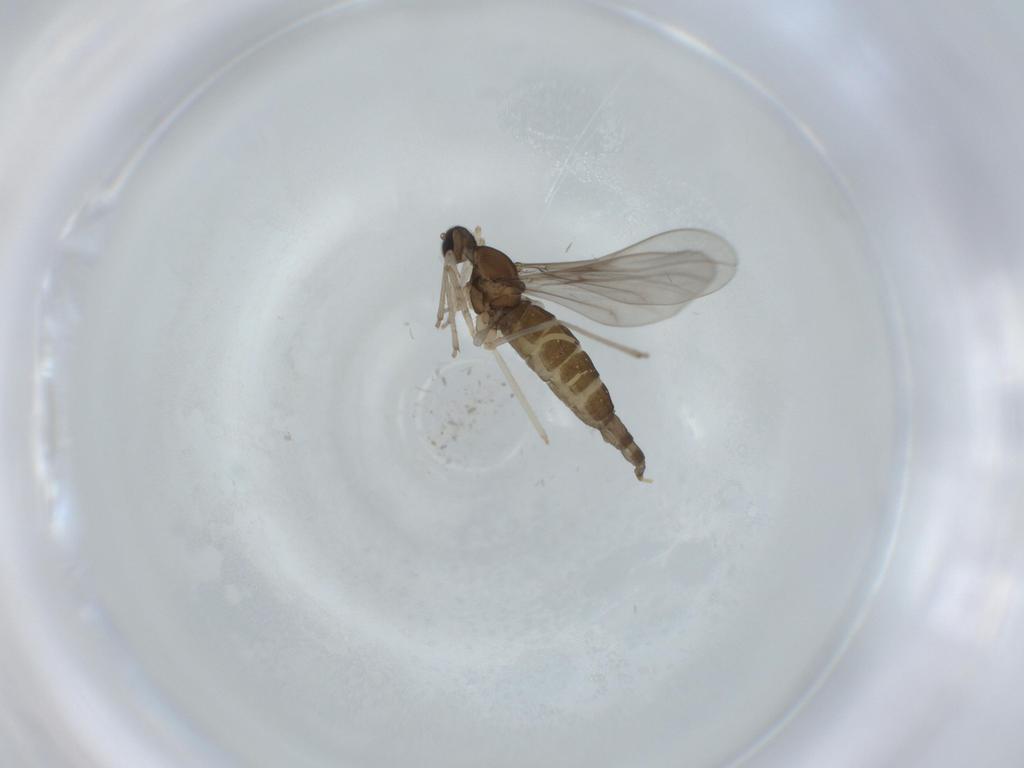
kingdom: Animalia
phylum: Arthropoda
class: Insecta
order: Diptera
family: Cecidomyiidae
